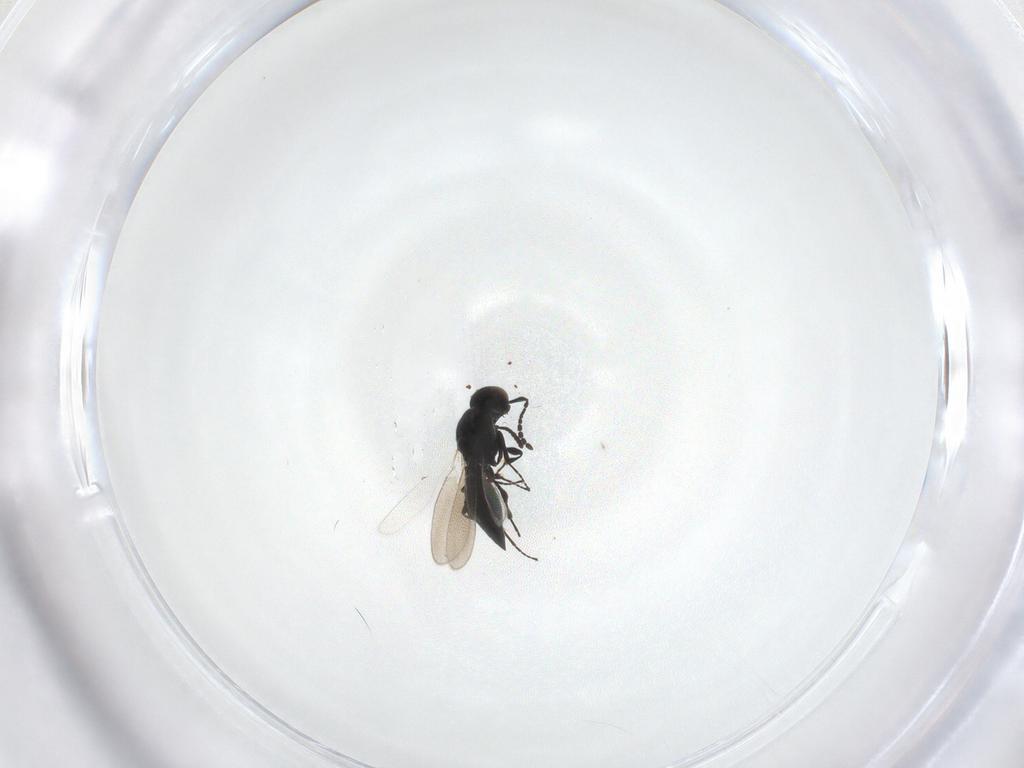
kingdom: Animalia
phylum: Arthropoda
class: Insecta
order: Hymenoptera
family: Platygastridae
